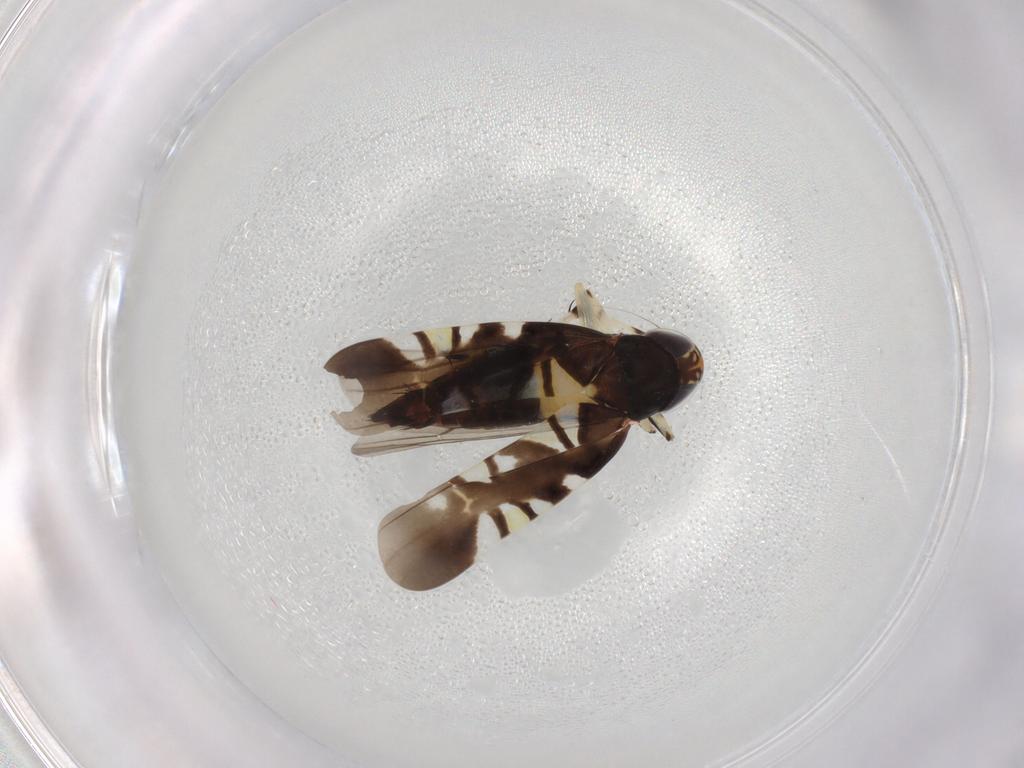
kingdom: Animalia
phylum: Arthropoda
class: Insecta
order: Hemiptera
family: Cicadellidae
